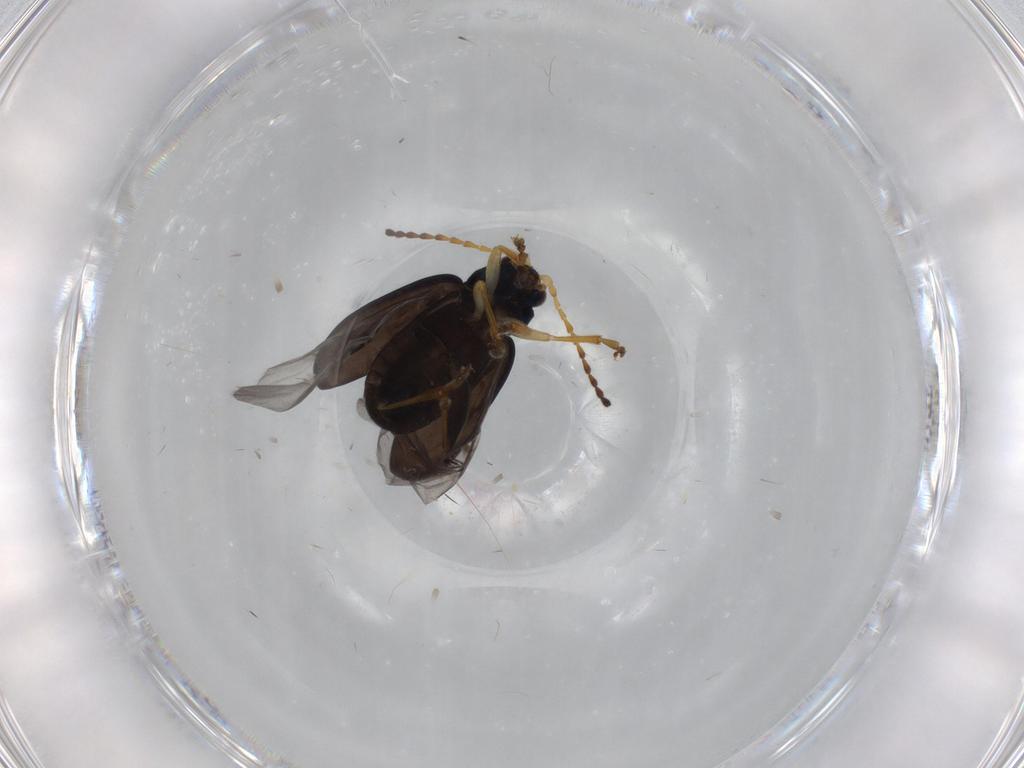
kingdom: Animalia
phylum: Arthropoda
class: Insecta
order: Coleoptera
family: Chrysomelidae
